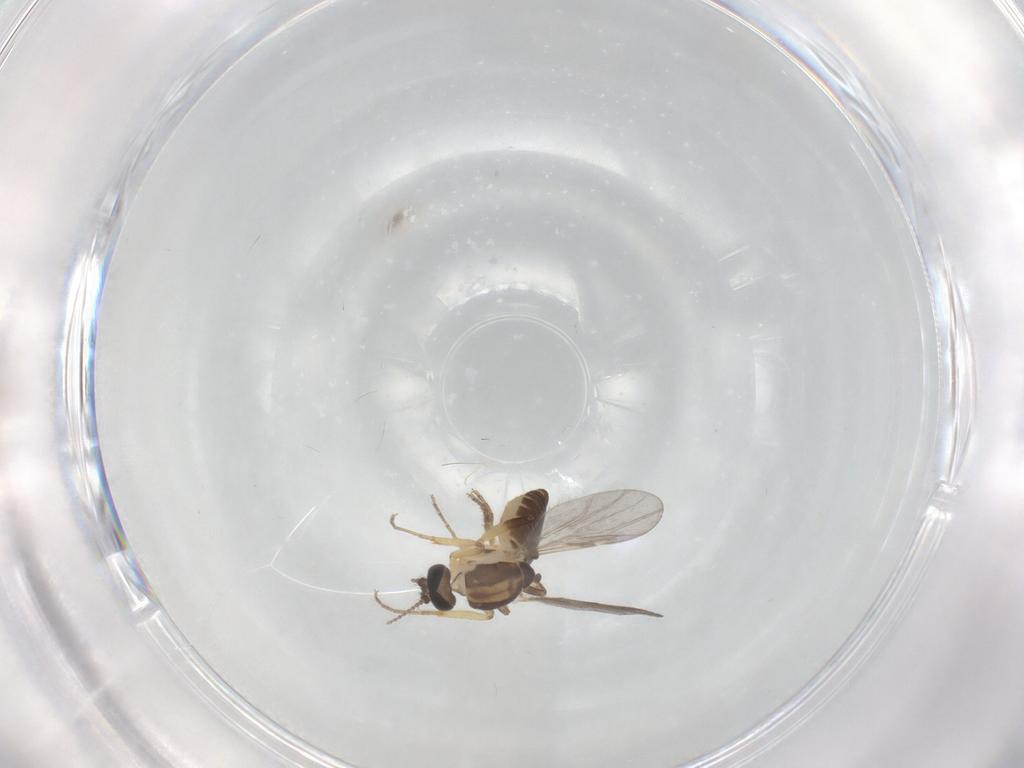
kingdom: Animalia
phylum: Arthropoda
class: Insecta
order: Diptera
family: Ceratopogonidae
